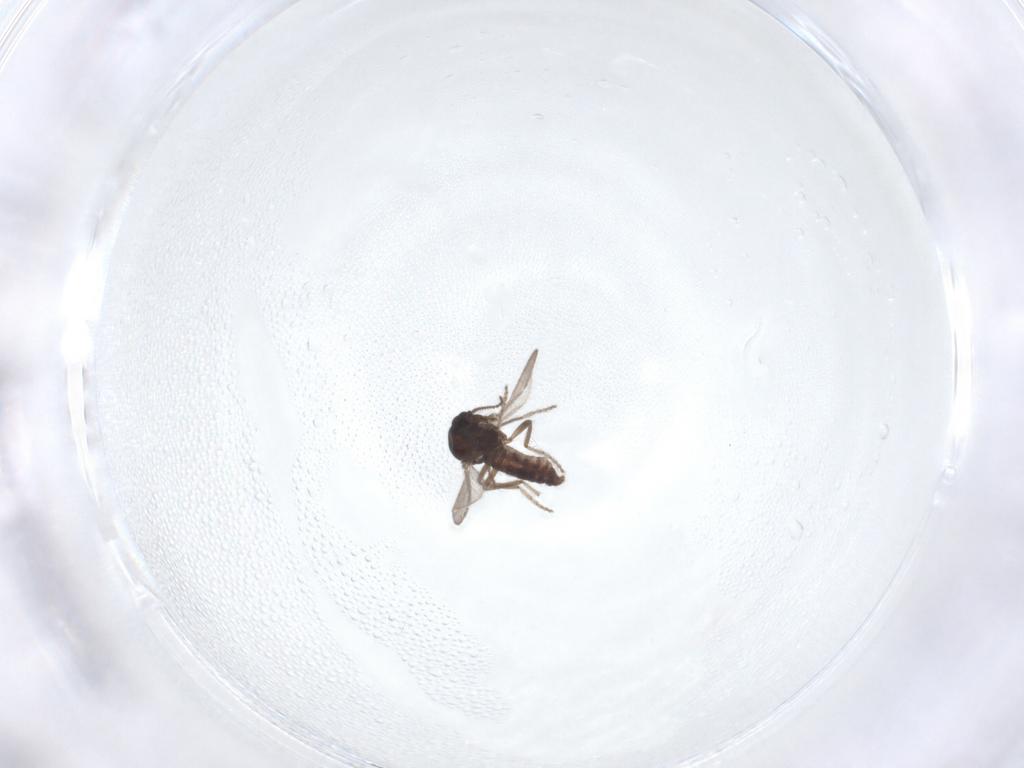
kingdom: Animalia
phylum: Arthropoda
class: Insecta
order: Diptera
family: Ceratopogonidae
